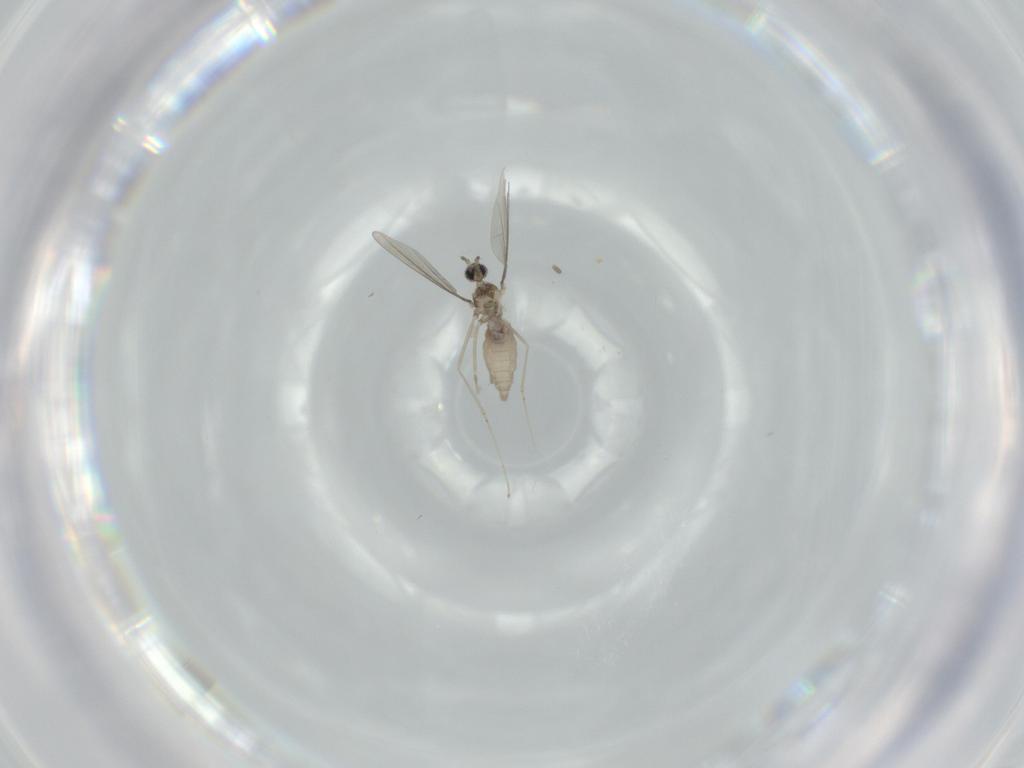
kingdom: Animalia
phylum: Arthropoda
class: Insecta
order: Diptera
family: Cecidomyiidae
